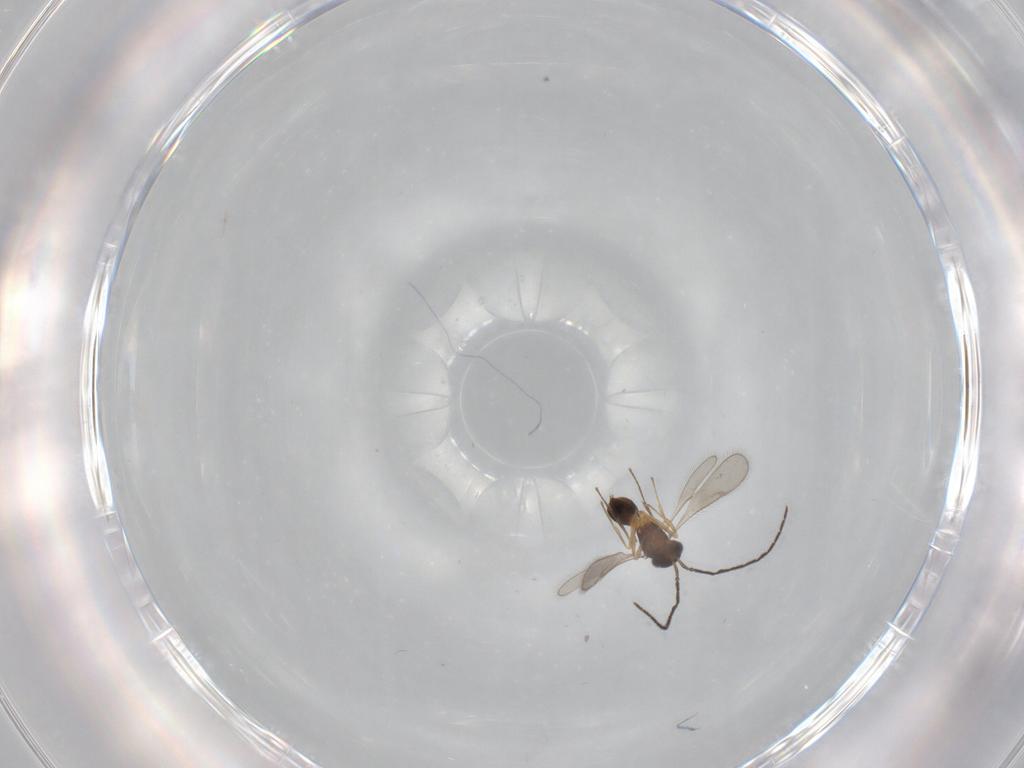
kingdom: Animalia
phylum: Arthropoda
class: Insecta
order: Hymenoptera
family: Scelionidae
